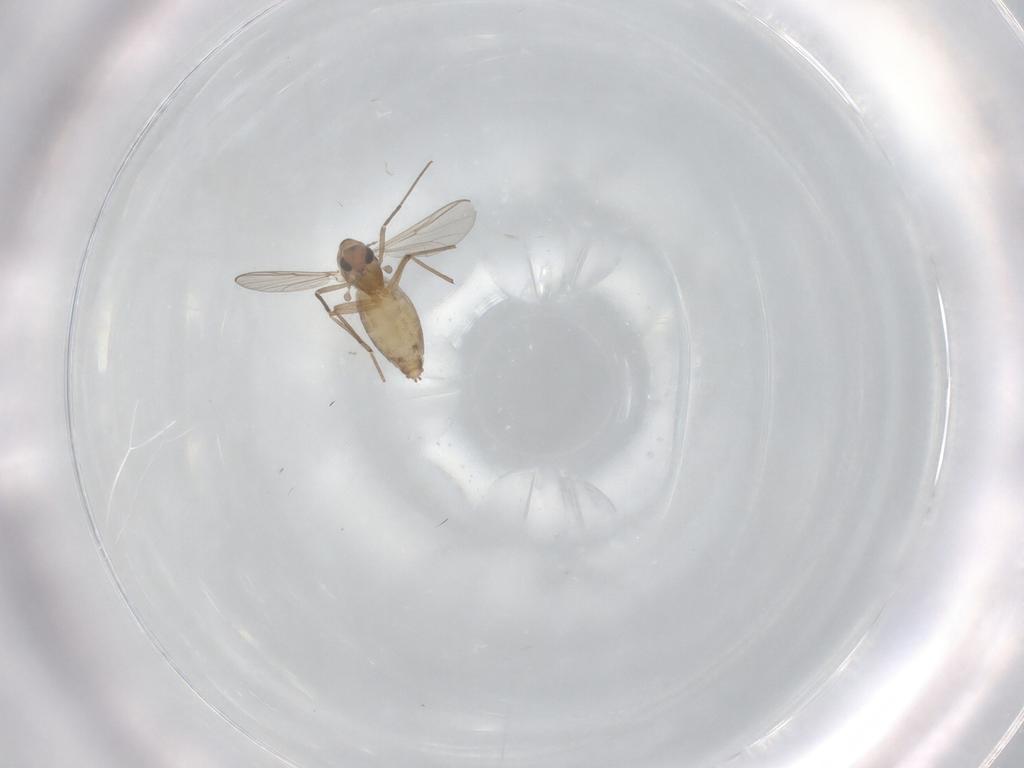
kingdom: Animalia
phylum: Arthropoda
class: Insecta
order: Diptera
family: Chironomidae
